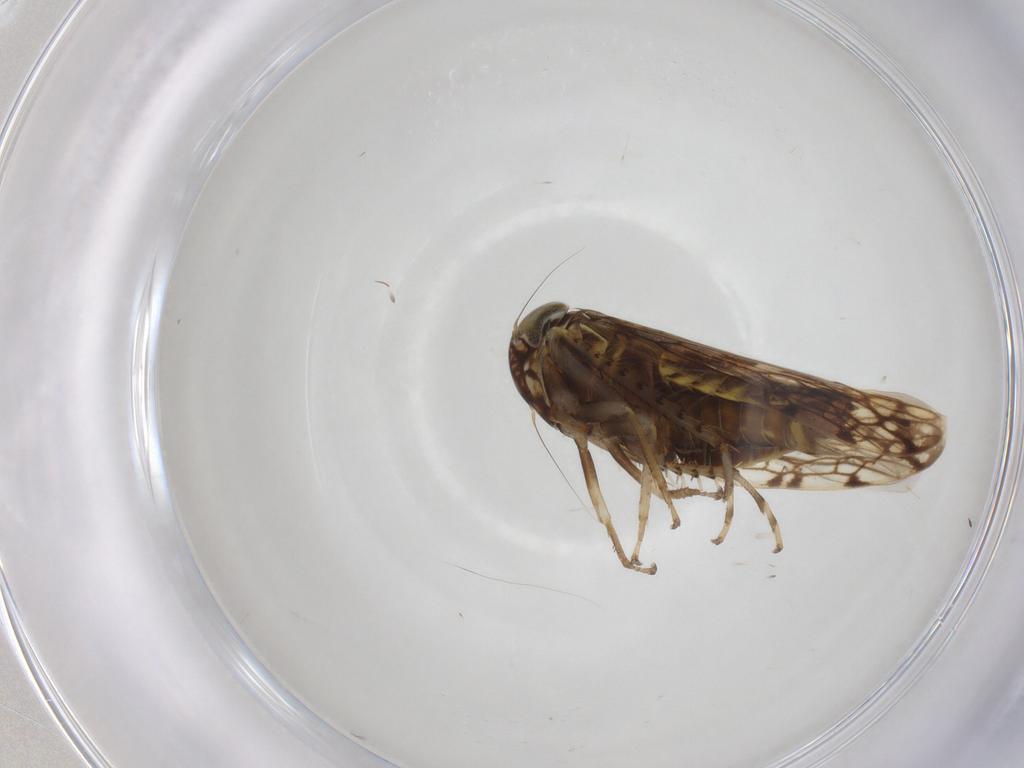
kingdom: Animalia
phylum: Arthropoda
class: Insecta
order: Hemiptera
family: Cicadellidae
